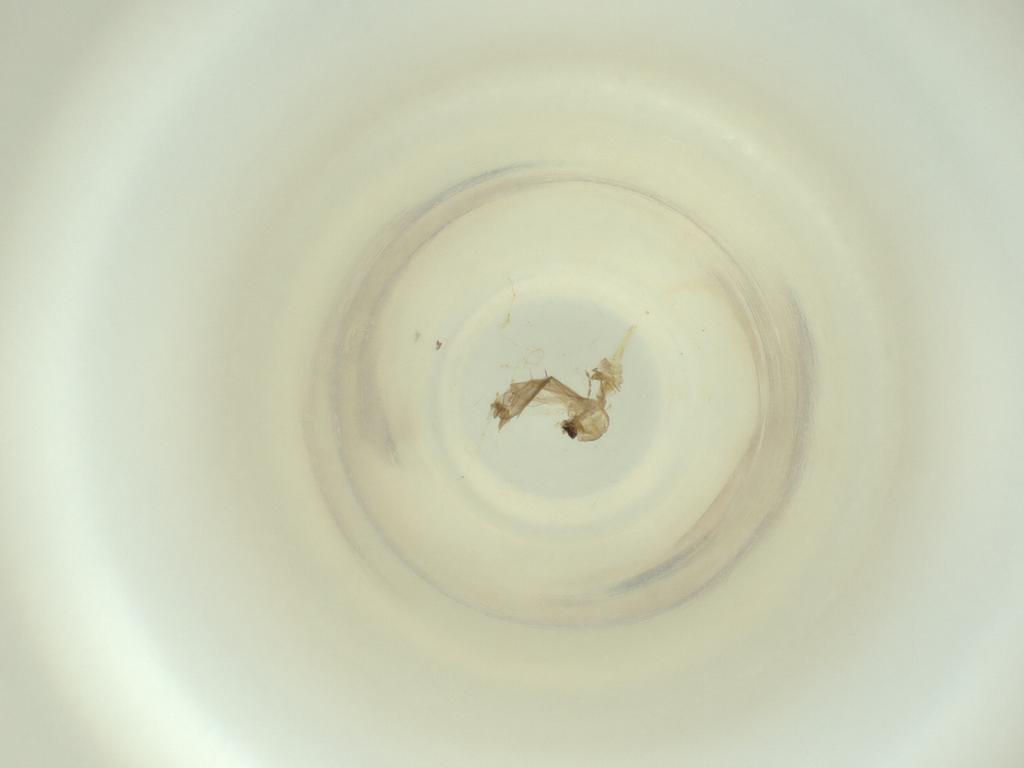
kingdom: Animalia
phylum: Arthropoda
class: Insecta
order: Diptera
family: Cecidomyiidae
